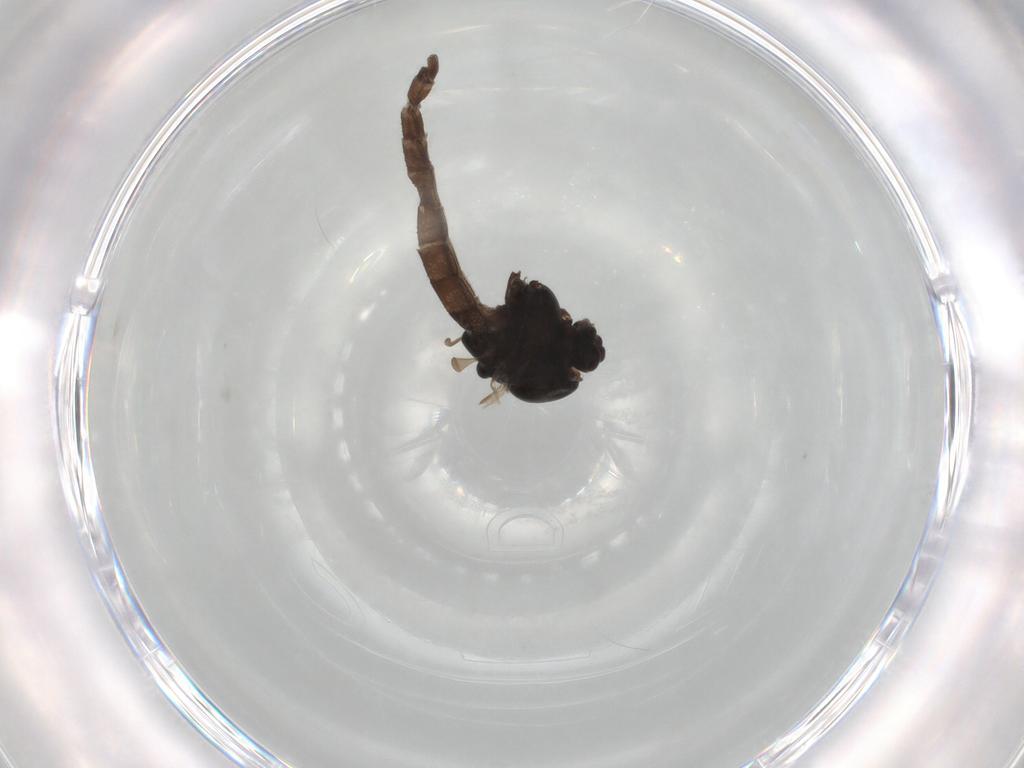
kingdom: Animalia
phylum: Arthropoda
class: Insecta
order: Diptera
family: Chironomidae
